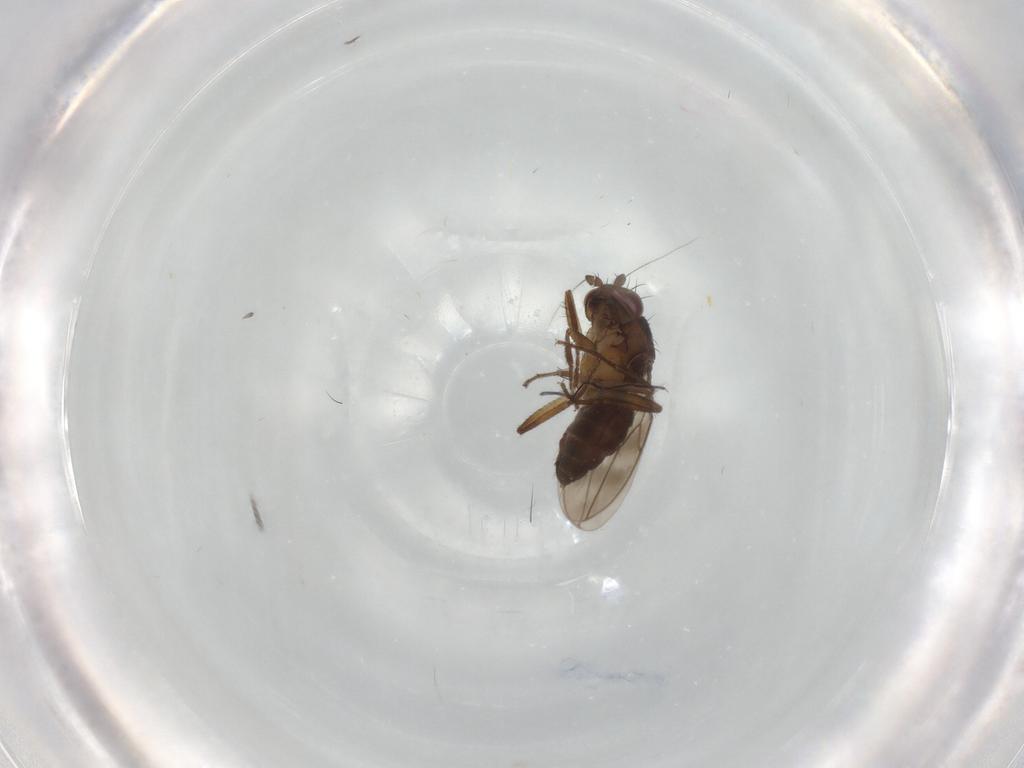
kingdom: Animalia
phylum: Arthropoda
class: Insecta
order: Diptera
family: Sphaeroceridae
